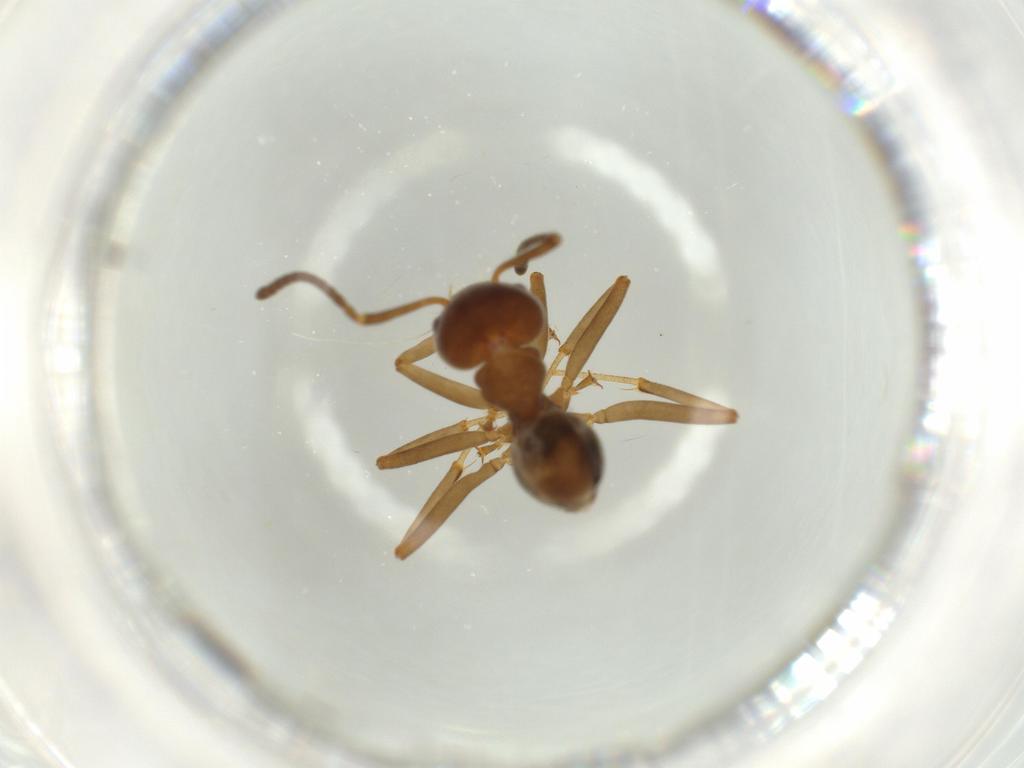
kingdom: Animalia
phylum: Arthropoda
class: Insecta
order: Hymenoptera
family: Formicidae
